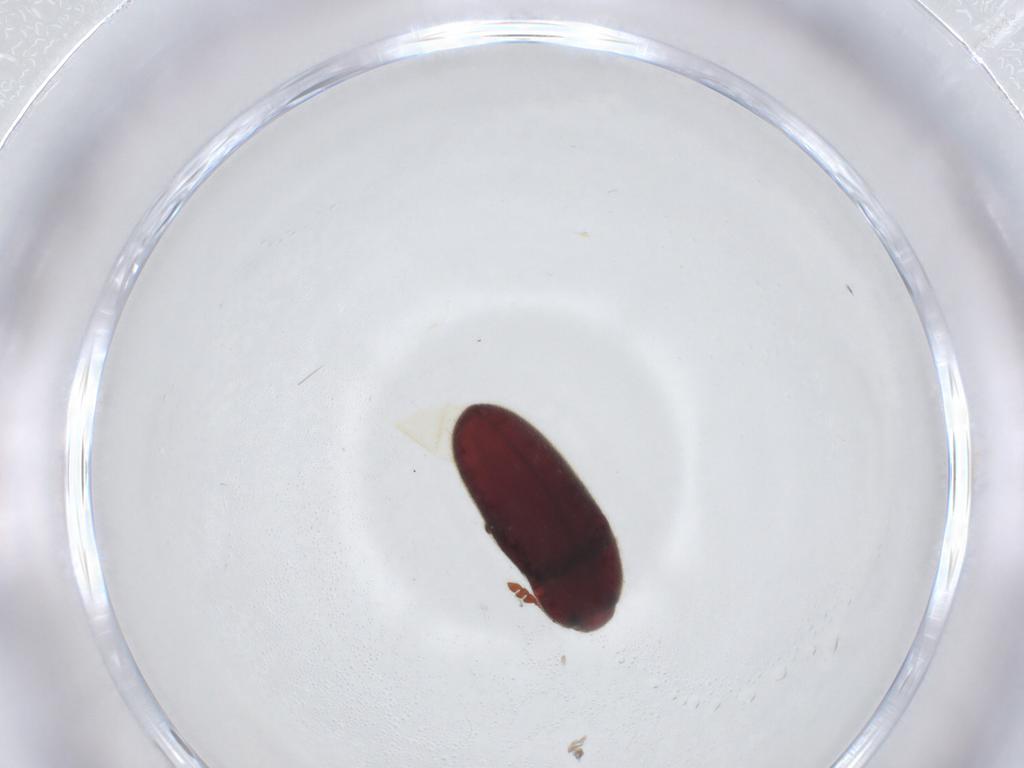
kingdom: Animalia
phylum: Arthropoda
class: Insecta
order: Coleoptera
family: Throscidae
